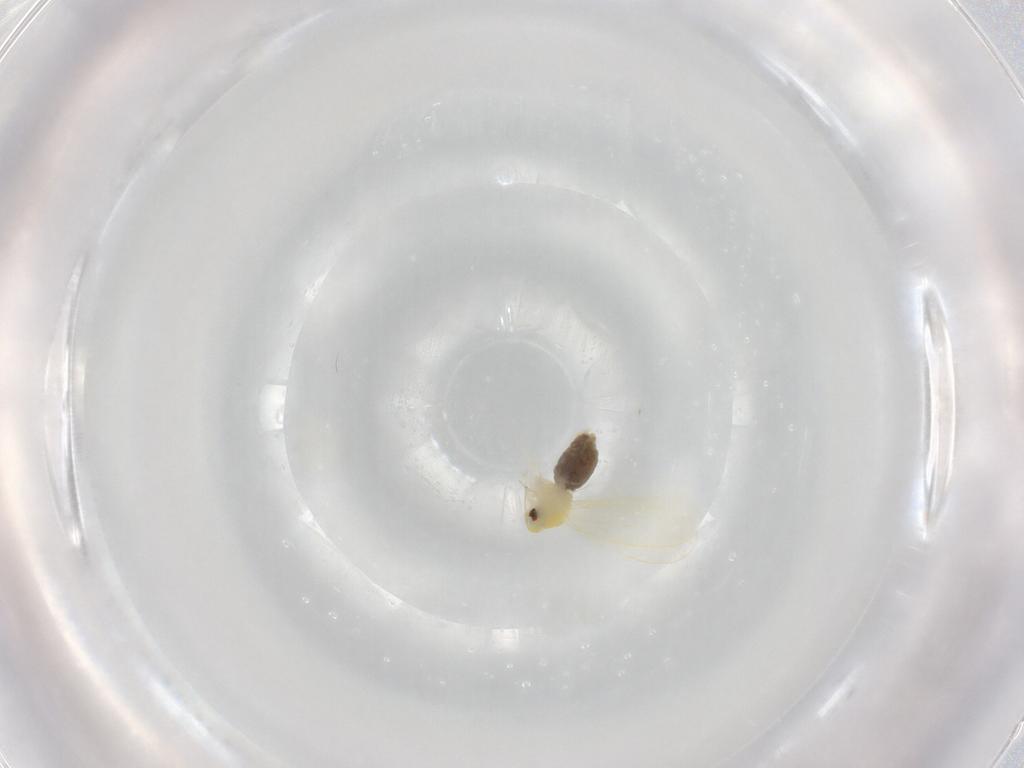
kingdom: Animalia
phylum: Arthropoda
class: Insecta
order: Hemiptera
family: Aleyrodidae
